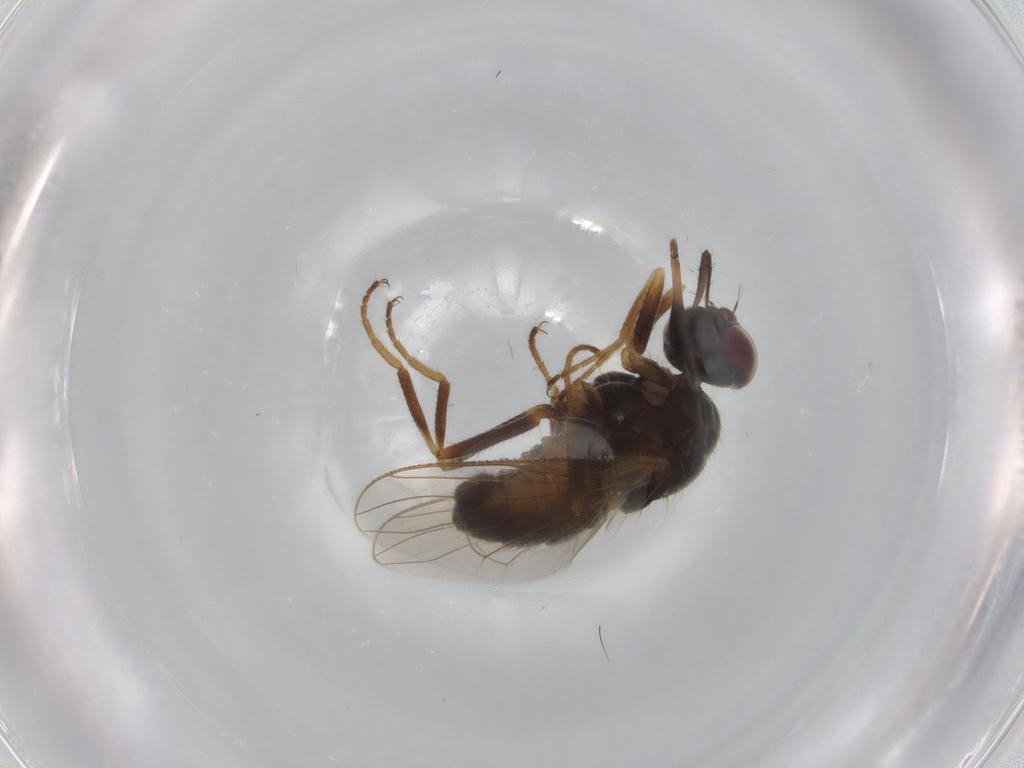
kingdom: Animalia
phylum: Arthropoda
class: Insecta
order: Diptera
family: Muscidae
